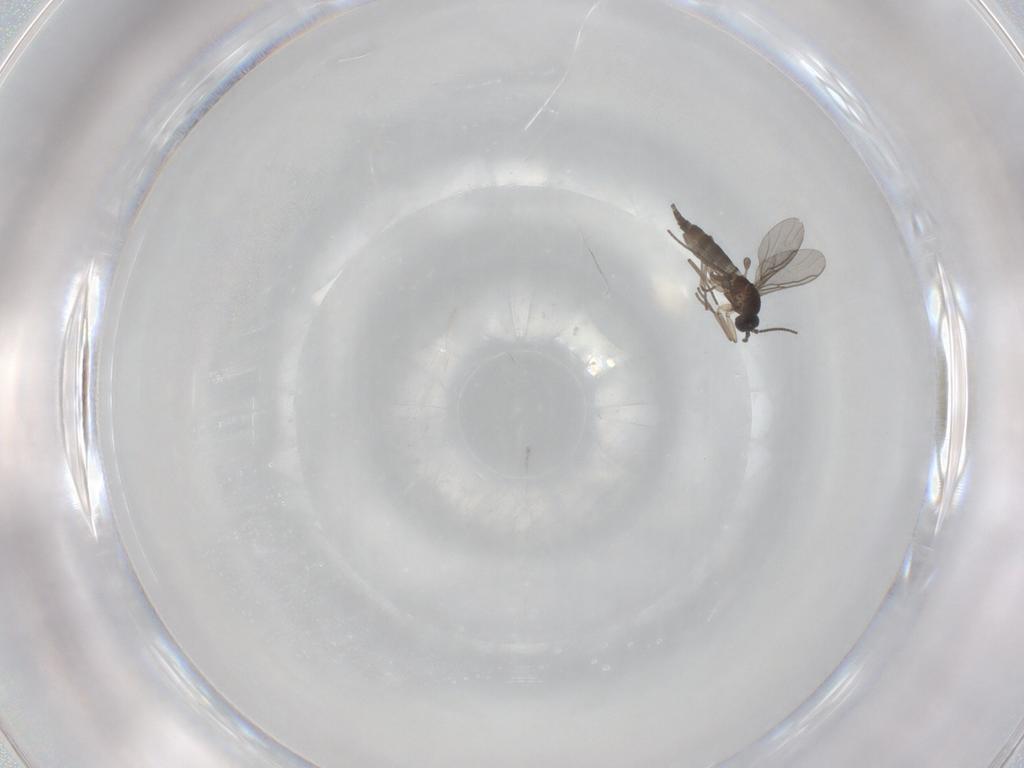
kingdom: Animalia
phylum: Arthropoda
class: Insecta
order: Diptera
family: Sciaridae
